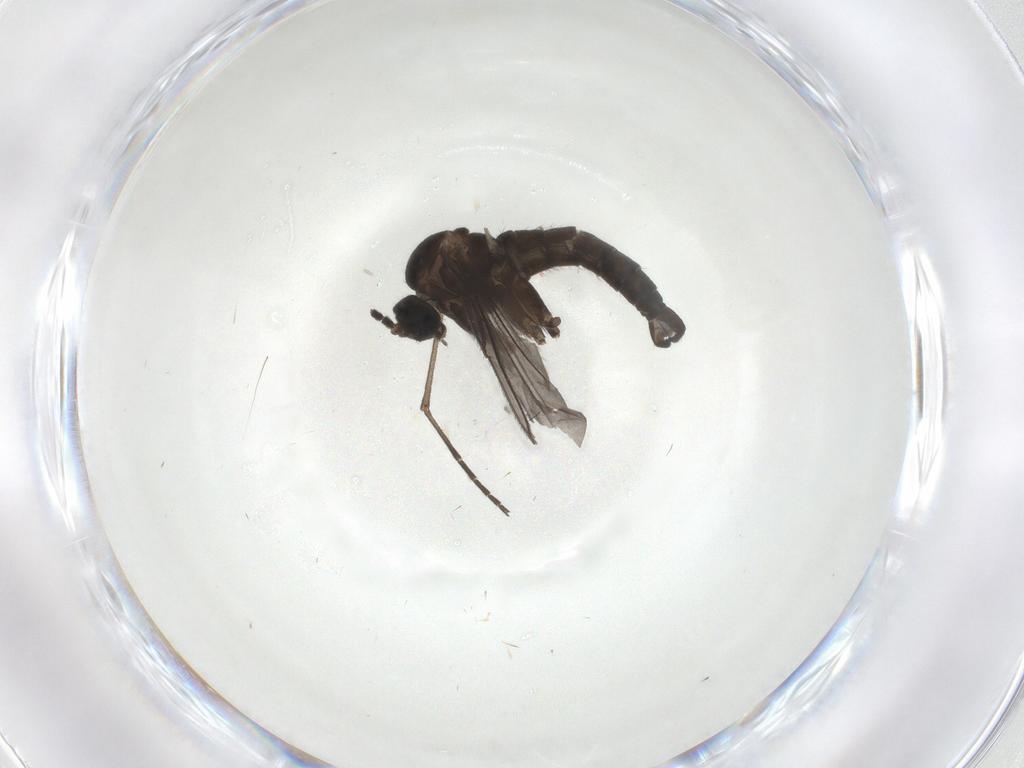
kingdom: Animalia
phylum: Arthropoda
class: Insecta
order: Diptera
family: Sciaridae
